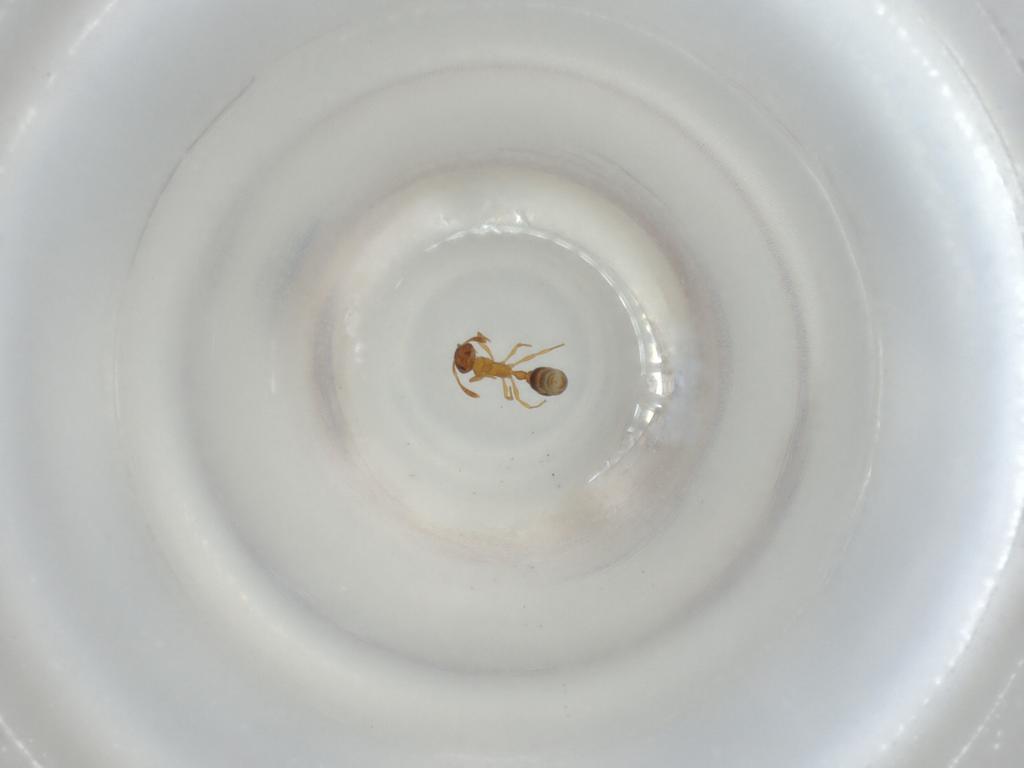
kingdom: Animalia
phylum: Arthropoda
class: Insecta
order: Hymenoptera
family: Formicidae
